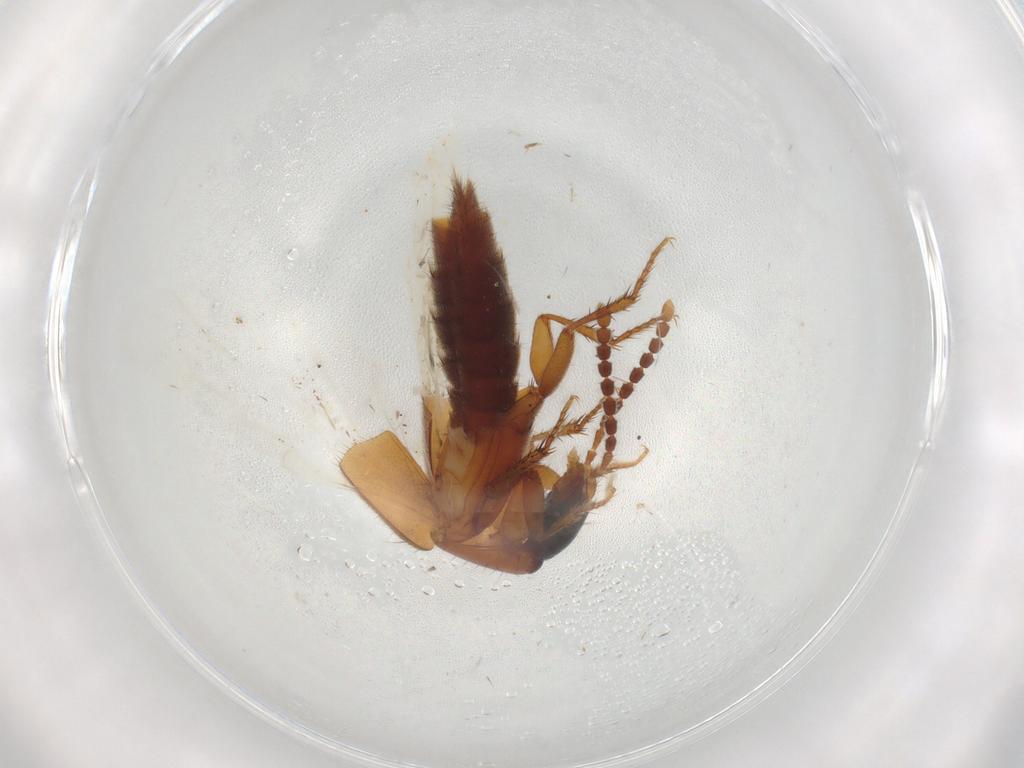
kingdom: Animalia
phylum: Arthropoda
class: Insecta
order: Coleoptera
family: Staphylinidae
